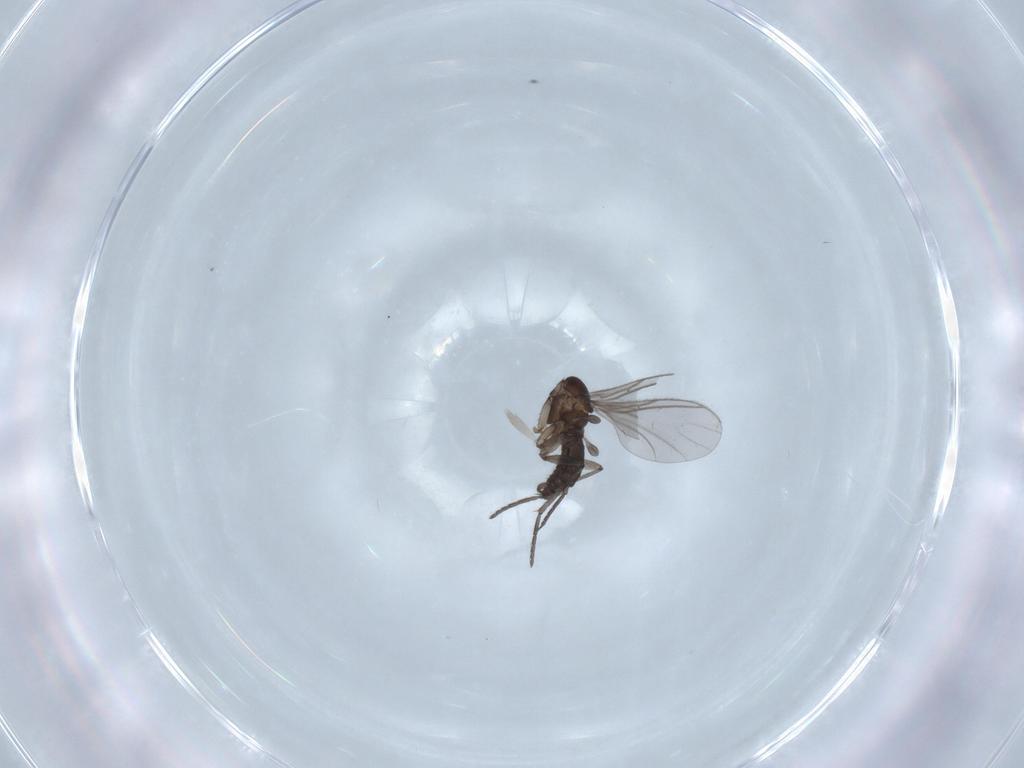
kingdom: Animalia
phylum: Arthropoda
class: Insecta
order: Diptera
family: Sciaridae
